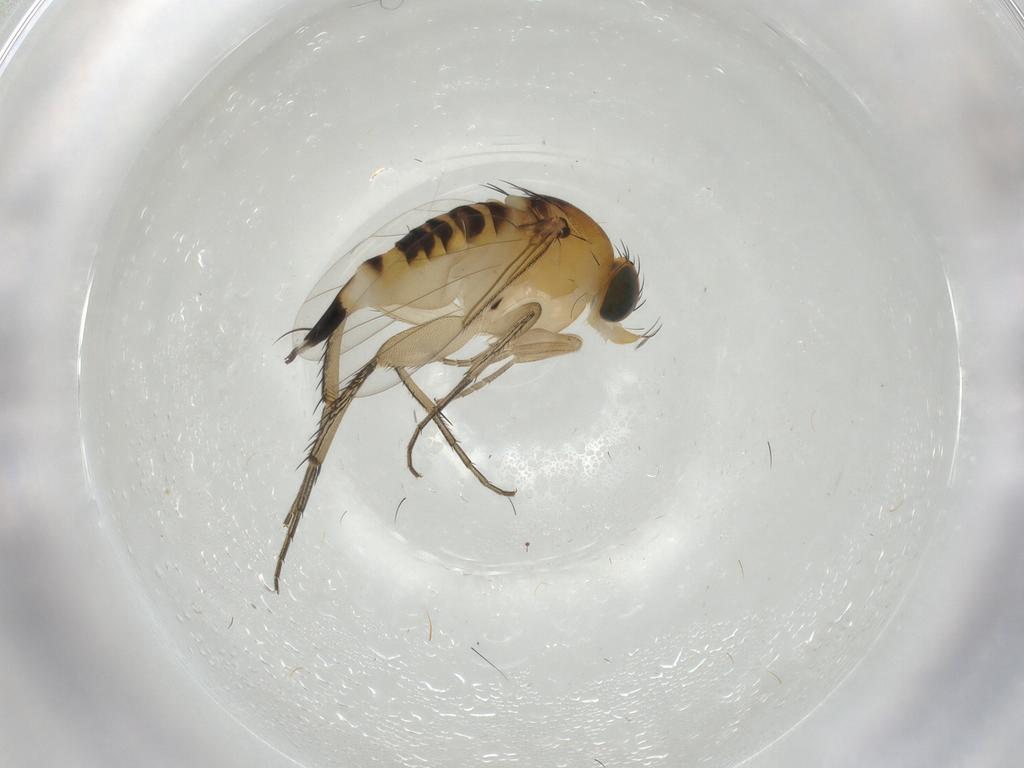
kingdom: Animalia
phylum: Arthropoda
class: Insecta
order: Diptera
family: Phoridae
